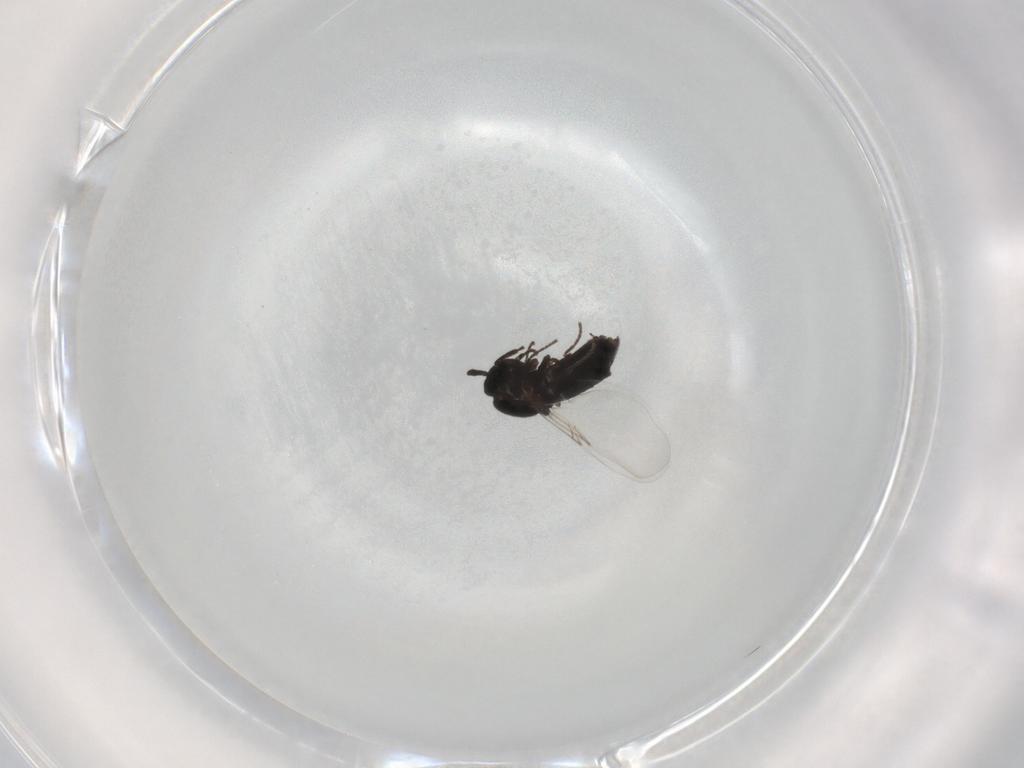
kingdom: Animalia
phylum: Arthropoda
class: Insecta
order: Diptera
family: Scatopsidae
